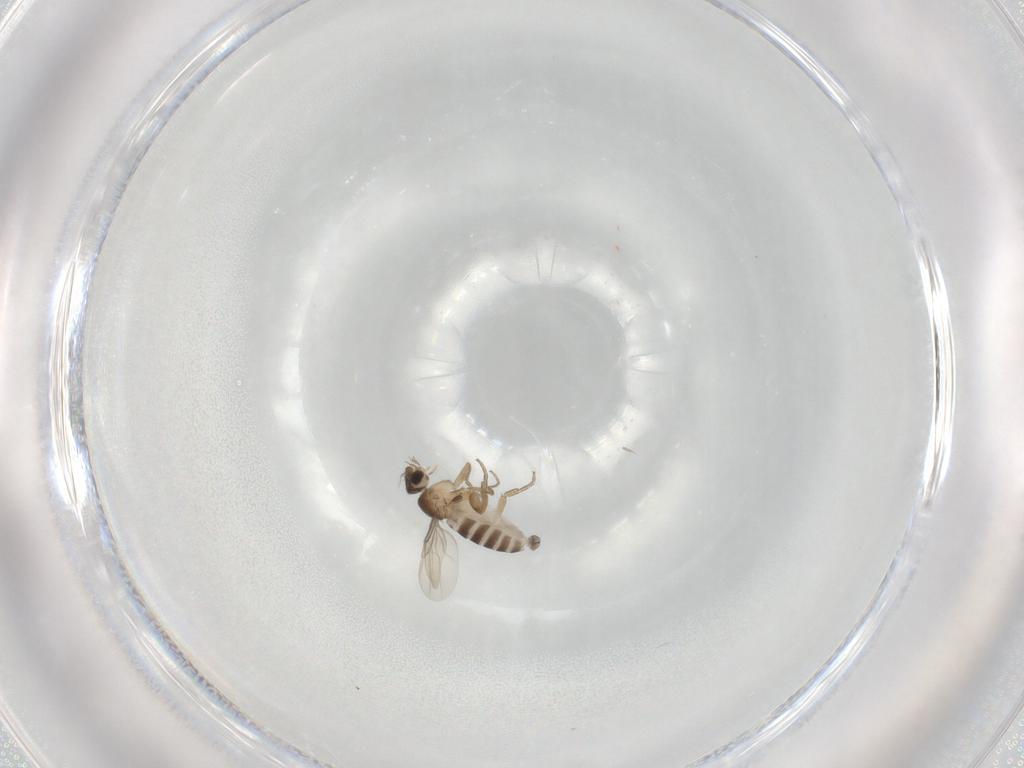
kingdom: Animalia
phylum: Arthropoda
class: Insecta
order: Diptera
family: Phoridae
